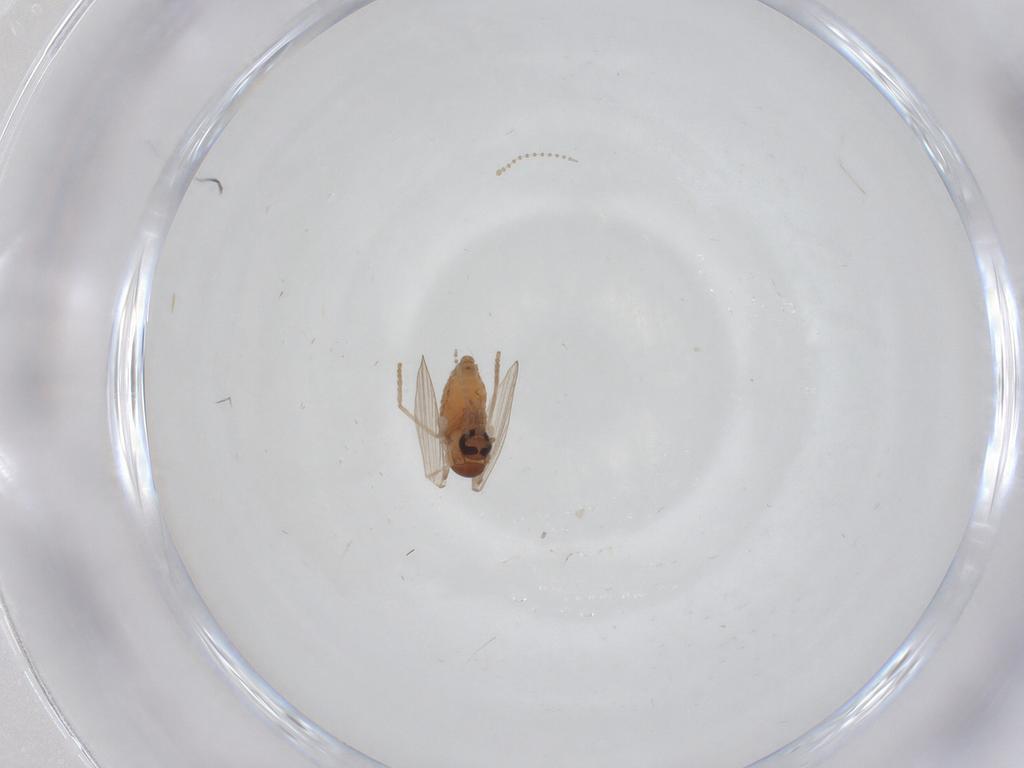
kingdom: Animalia
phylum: Arthropoda
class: Insecta
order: Diptera
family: Psychodidae
